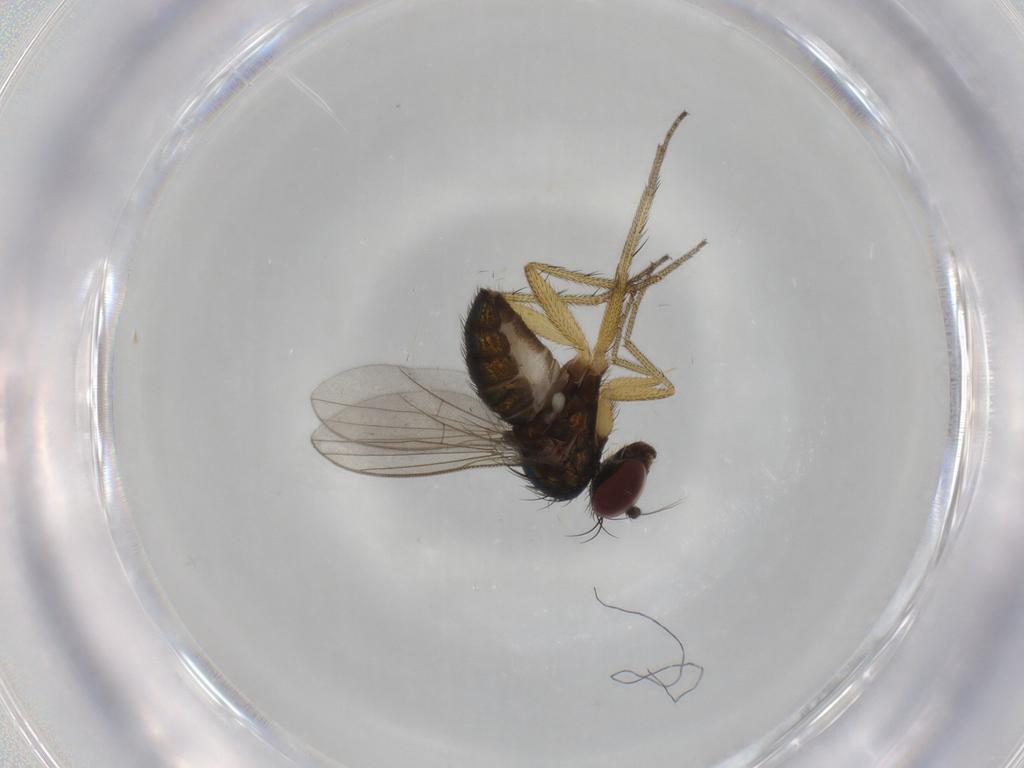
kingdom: Animalia
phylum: Arthropoda
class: Insecta
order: Diptera
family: Dolichopodidae
